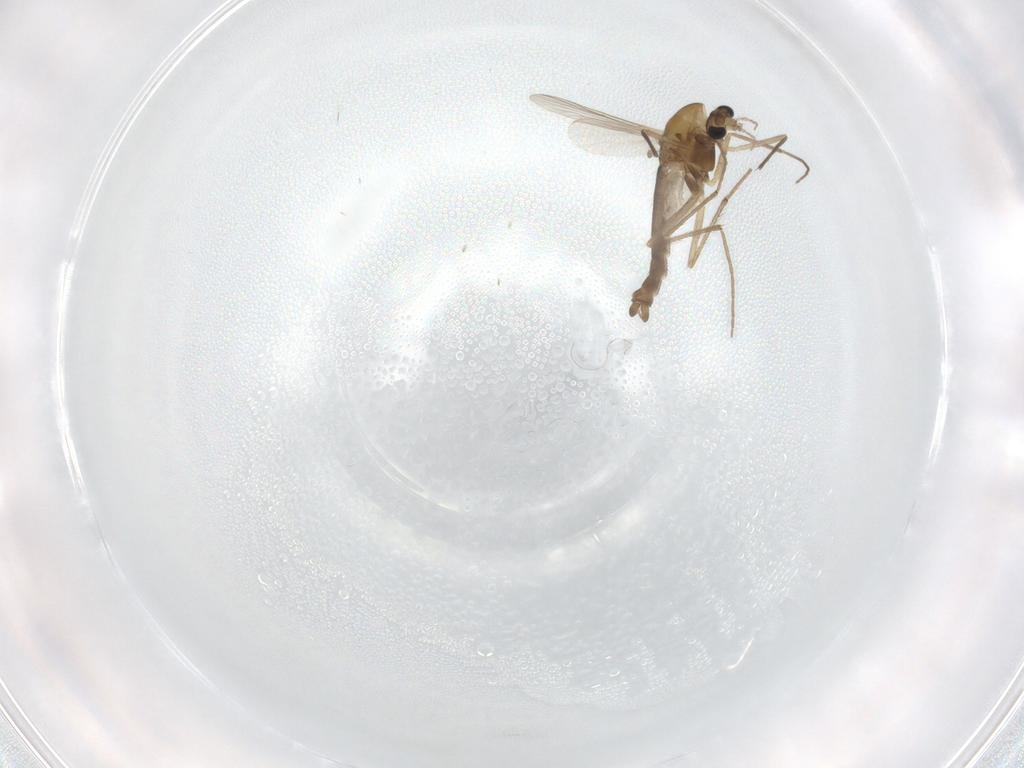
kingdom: Animalia
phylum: Arthropoda
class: Insecta
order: Diptera
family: Chironomidae
